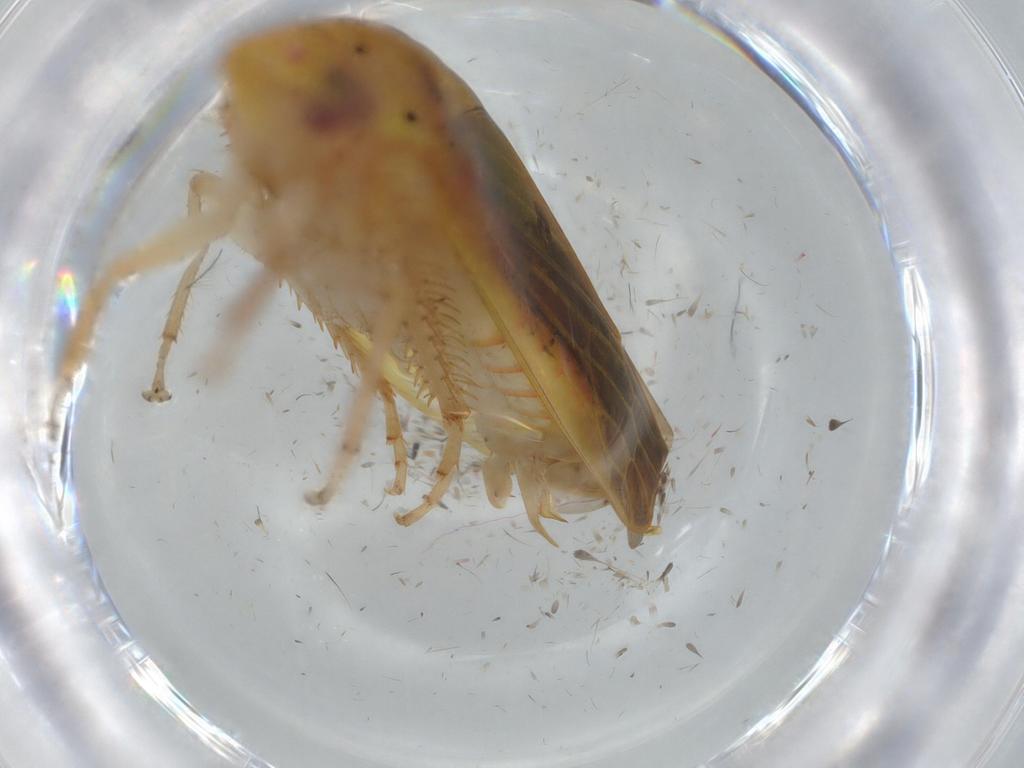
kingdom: Animalia
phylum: Arthropoda
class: Insecta
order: Hemiptera
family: Cicadellidae
